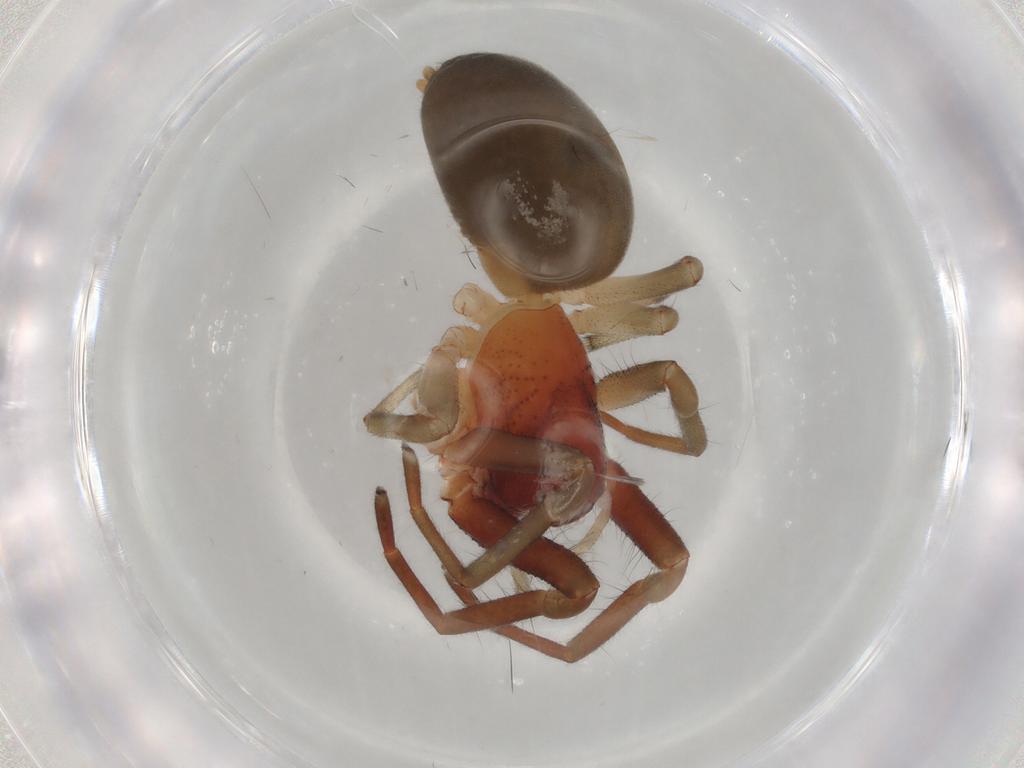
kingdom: Animalia
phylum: Arthropoda
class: Arachnida
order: Araneae
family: Trachelidae
